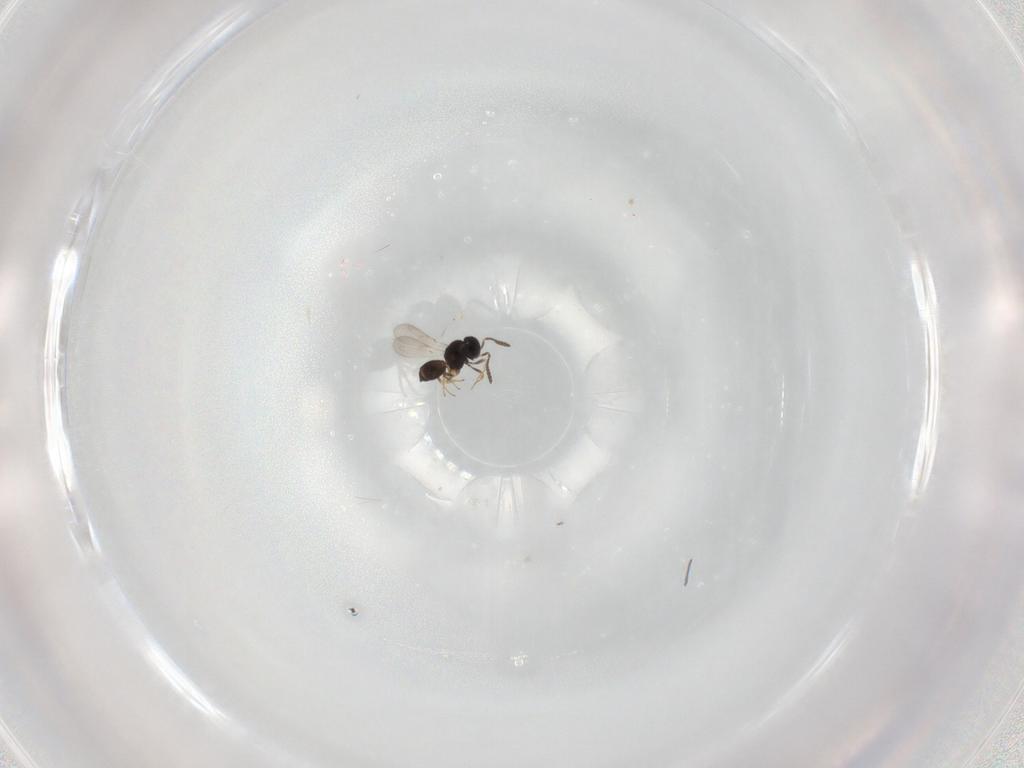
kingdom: Animalia
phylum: Arthropoda
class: Insecta
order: Hymenoptera
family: Scelionidae
